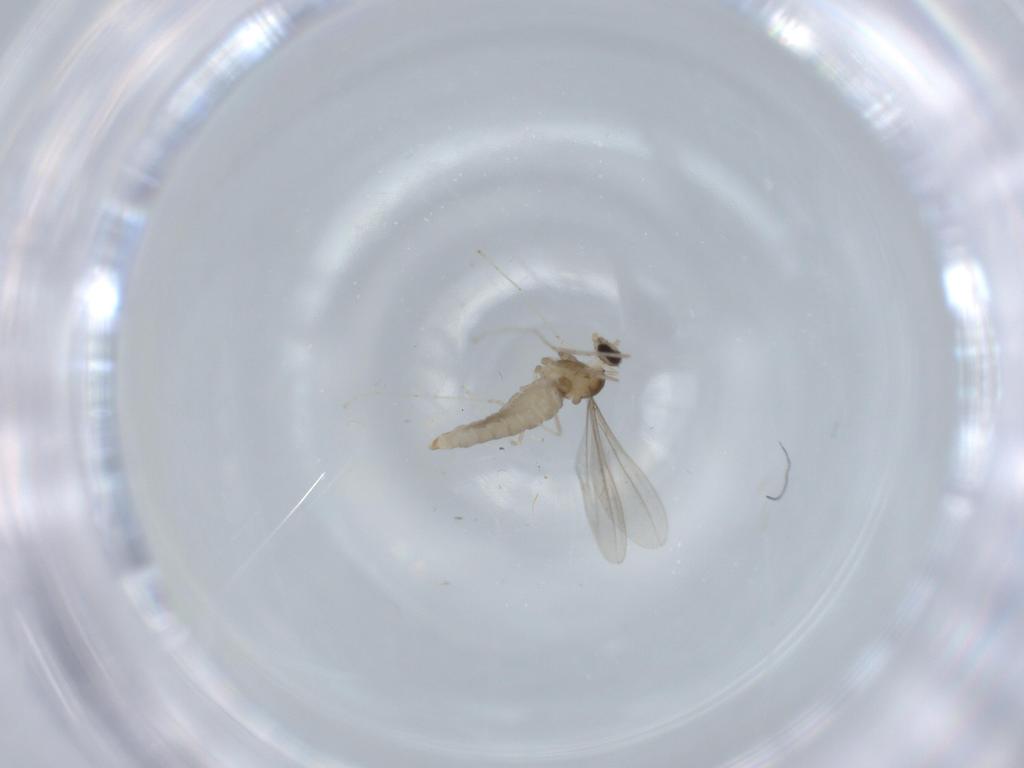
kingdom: Animalia
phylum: Arthropoda
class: Insecta
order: Diptera
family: Cecidomyiidae
